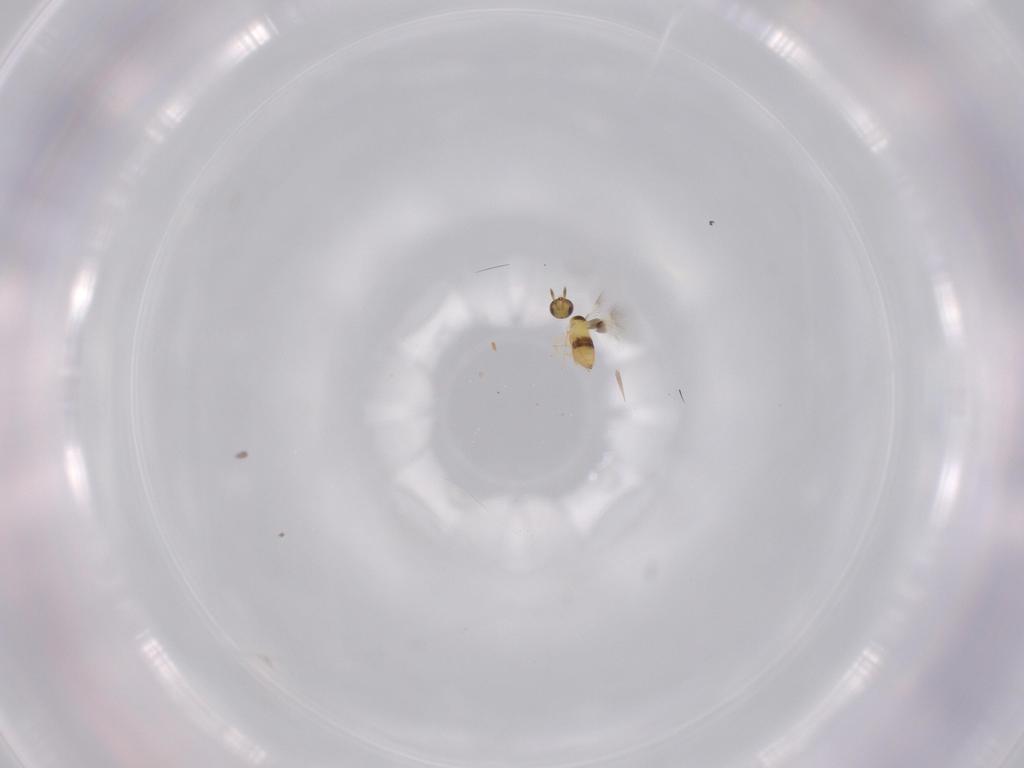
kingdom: Animalia
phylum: Arthropoda
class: Insecta
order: Hymenoptera
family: Signiphoridae
